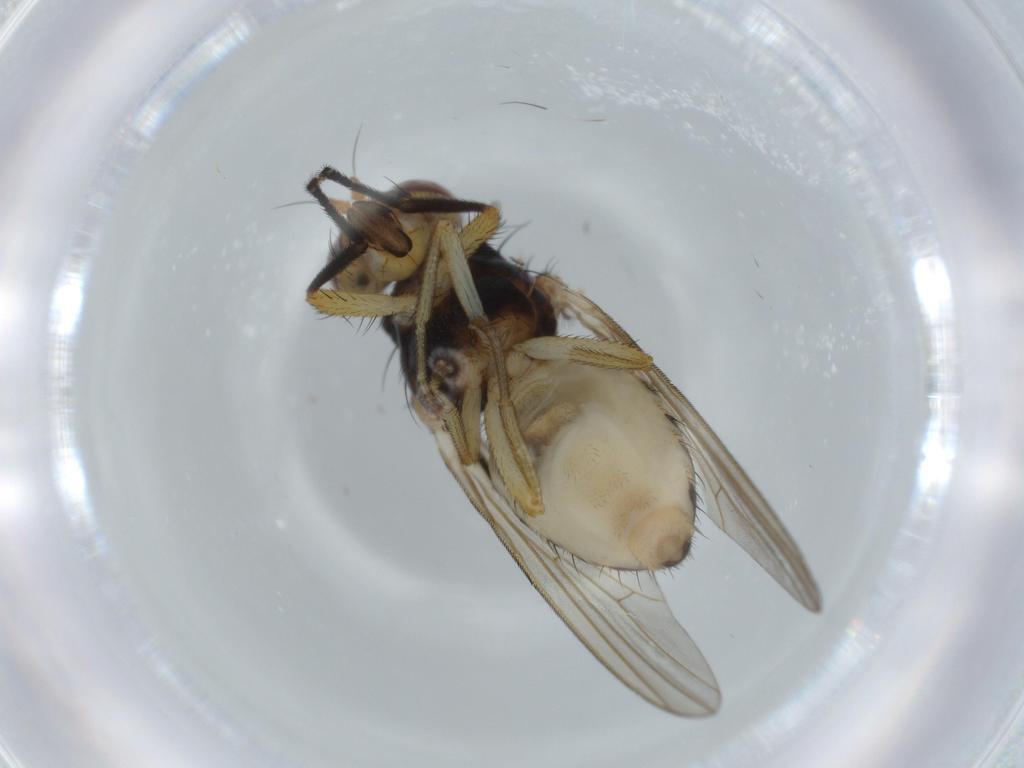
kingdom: Animalia
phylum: Arthropoda
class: Insecta
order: Diptera
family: Lauxaniidae
